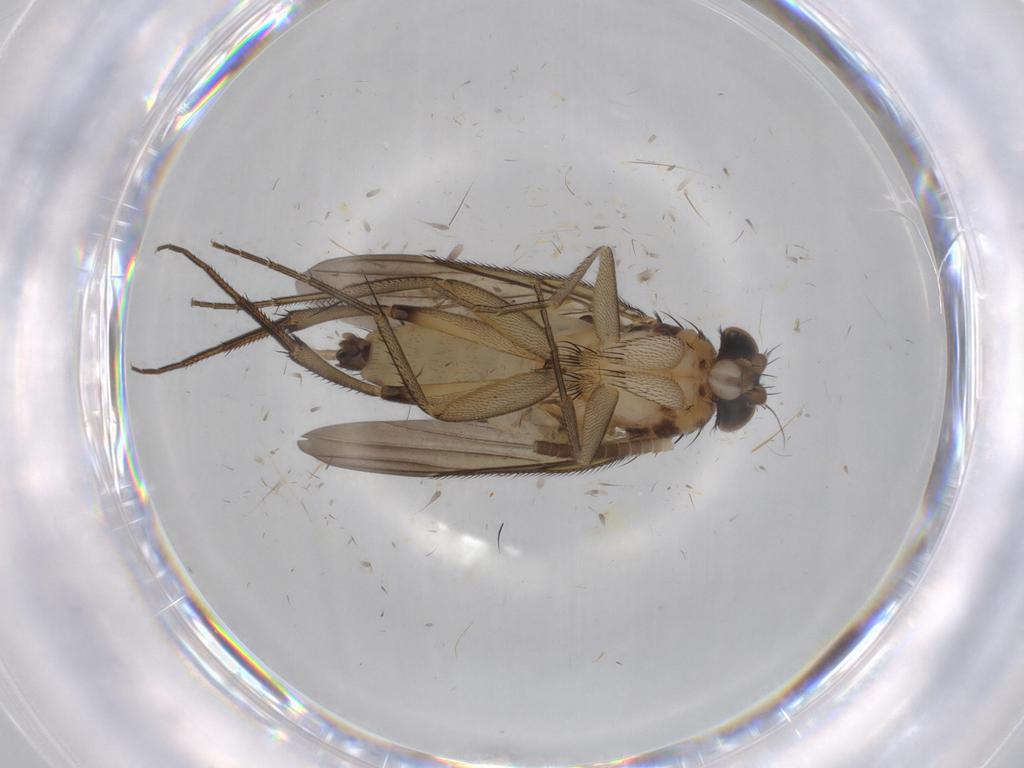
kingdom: Animalia
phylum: Arthropoda
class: Insecta
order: Diptera
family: Phoridae
